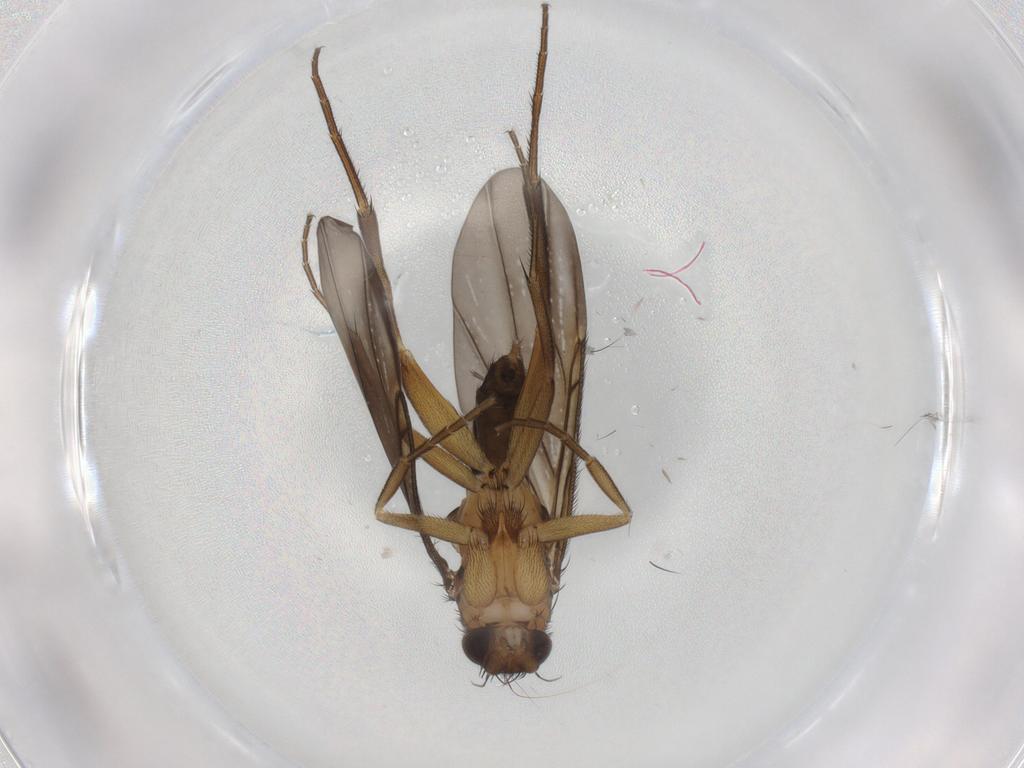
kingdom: Animalia
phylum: Arthropoda
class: Insecta
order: Diptera
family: Phoridae
